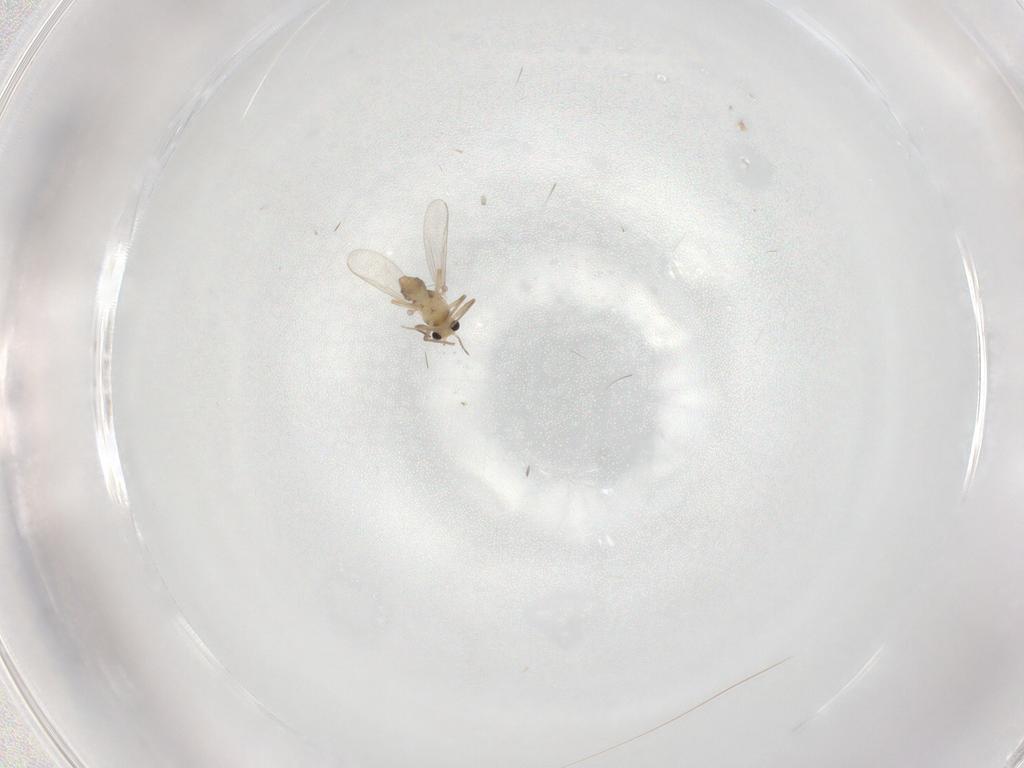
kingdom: Animalia
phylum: Arthropoda
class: Insecta
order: Diptera
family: Chironomidae
